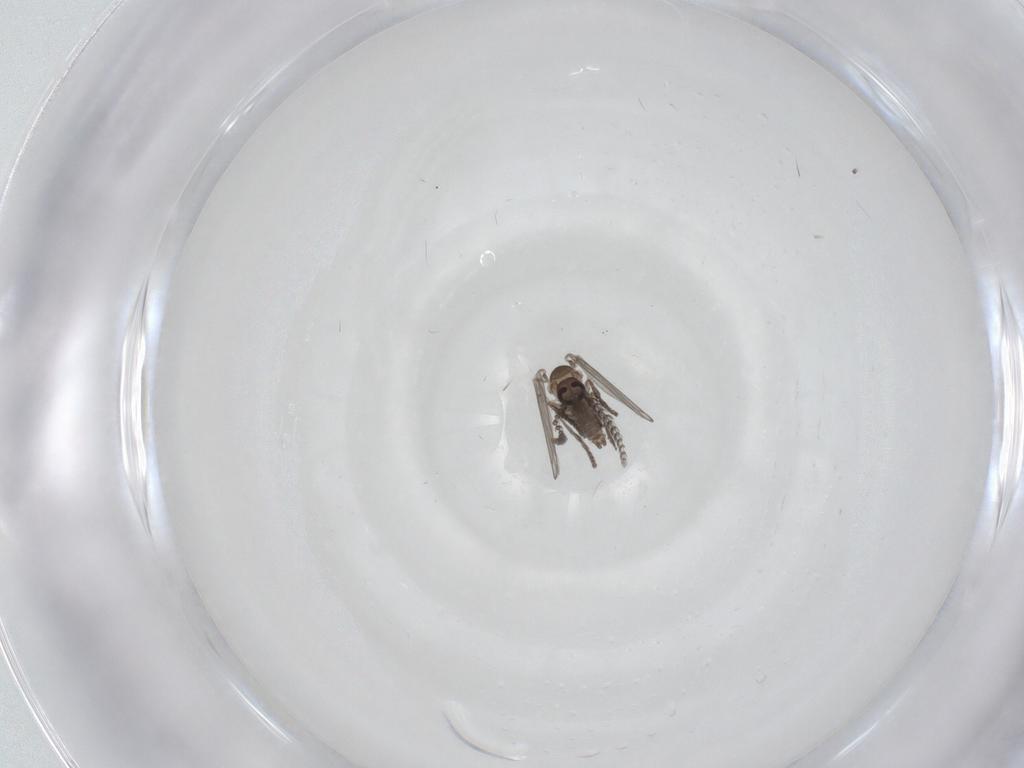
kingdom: Animalia
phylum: Arthropoda
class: Insecta
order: Diptera
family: Psychodidae
